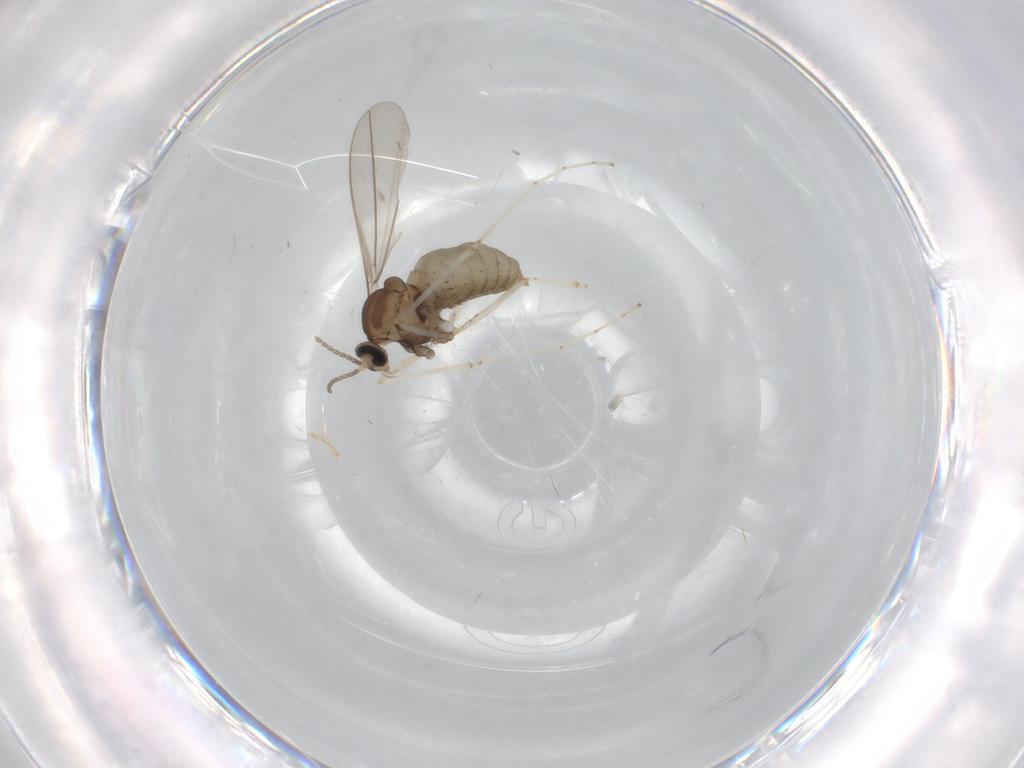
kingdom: Animalia
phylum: Arthropoda
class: Insecta
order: Diptera
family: Cecidomyiidae
